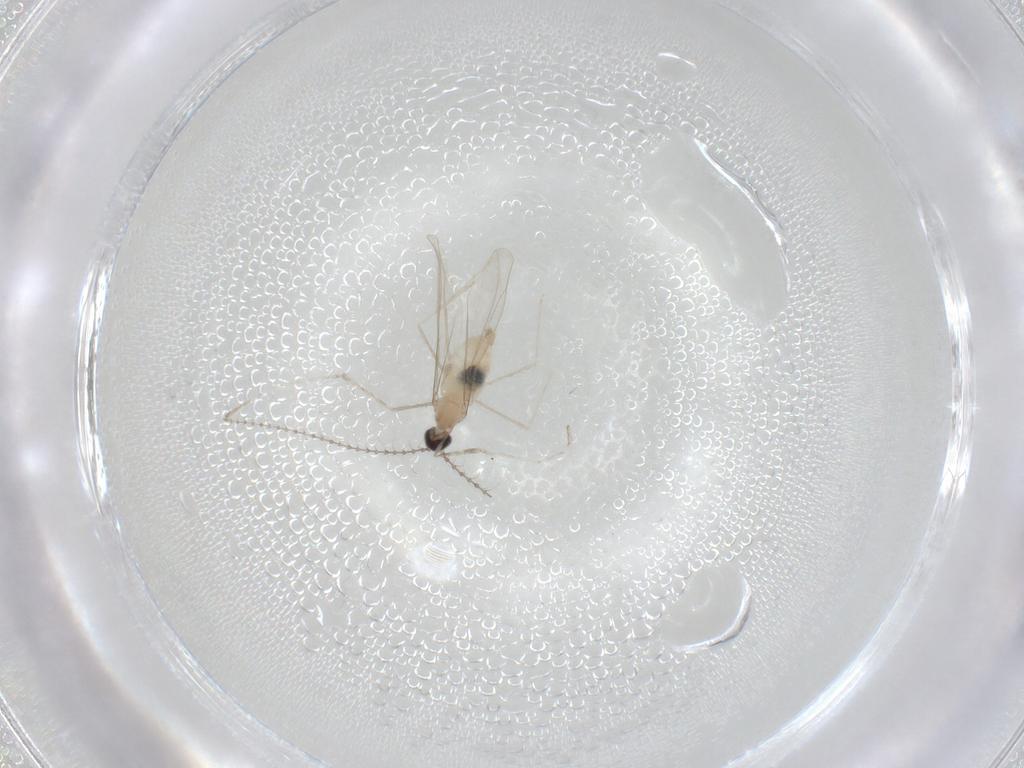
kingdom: Animalia
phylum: Arthropoda
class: Insecta
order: Diptera
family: Cecidomyiidae
